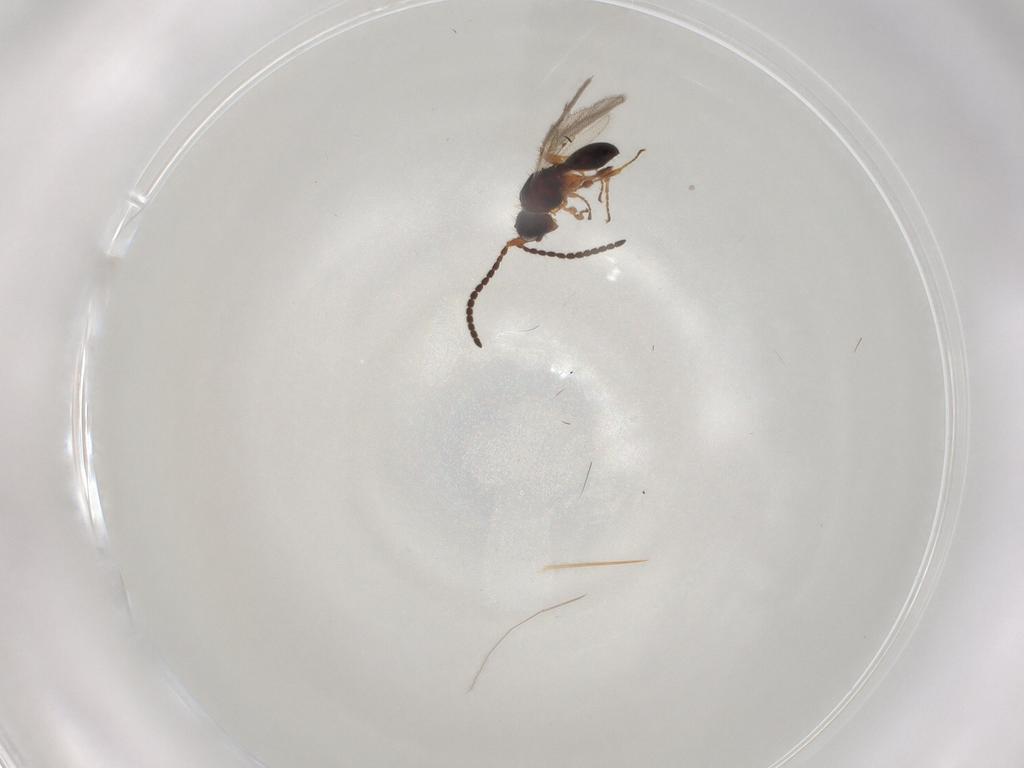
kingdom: Animalia
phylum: Arthropoda
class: Insecta
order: Hymenoptera
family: Formicidae
